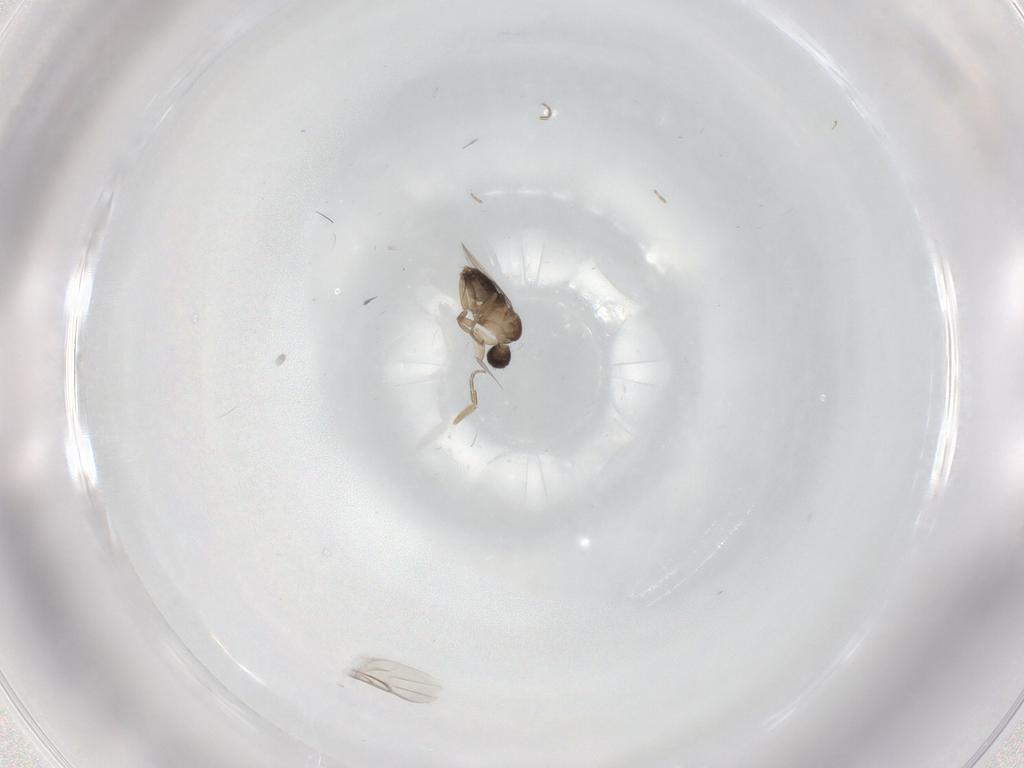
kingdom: Animalia
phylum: Arthropoda
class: Insecta
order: Diptera
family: Phoridae
